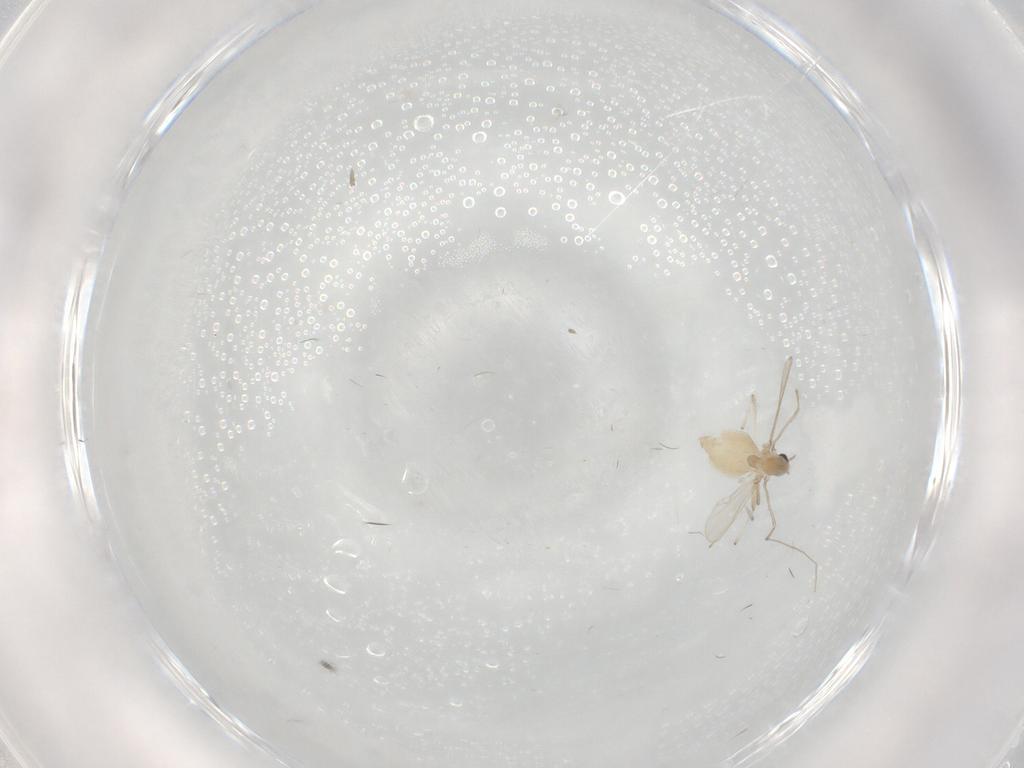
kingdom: Animalia
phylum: Arthropoda
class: Insecta
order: Diptera
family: Chironomidae
